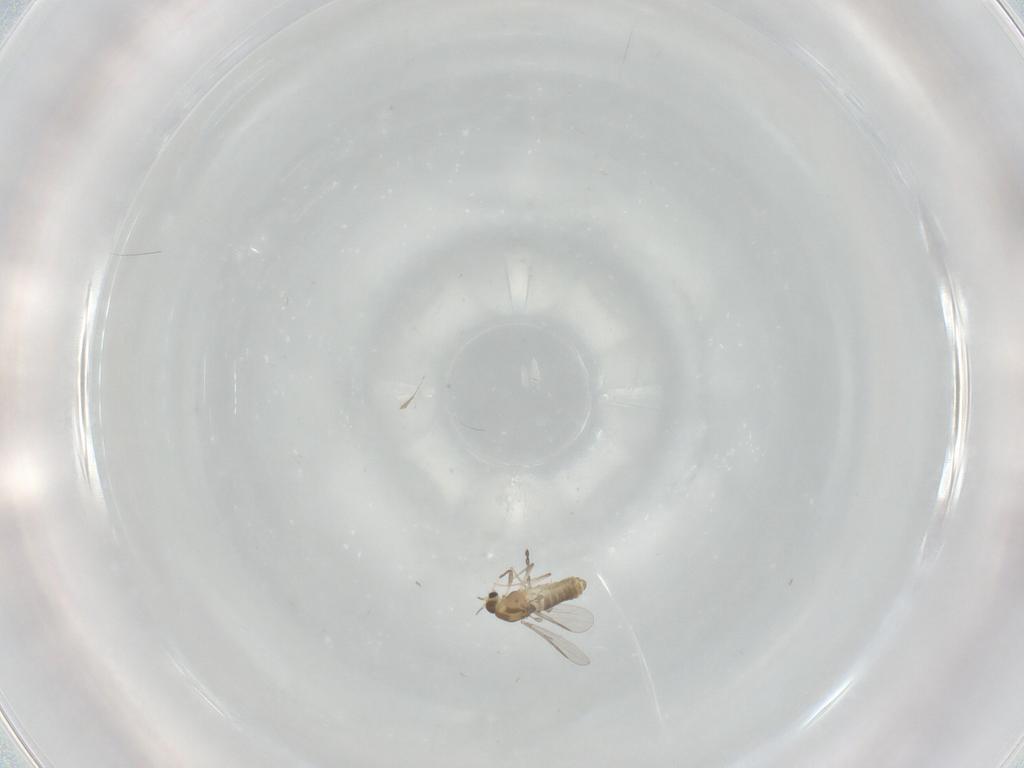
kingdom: Animalia
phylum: Arthropoda
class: Insecta
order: Diptera
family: Chironomidae
